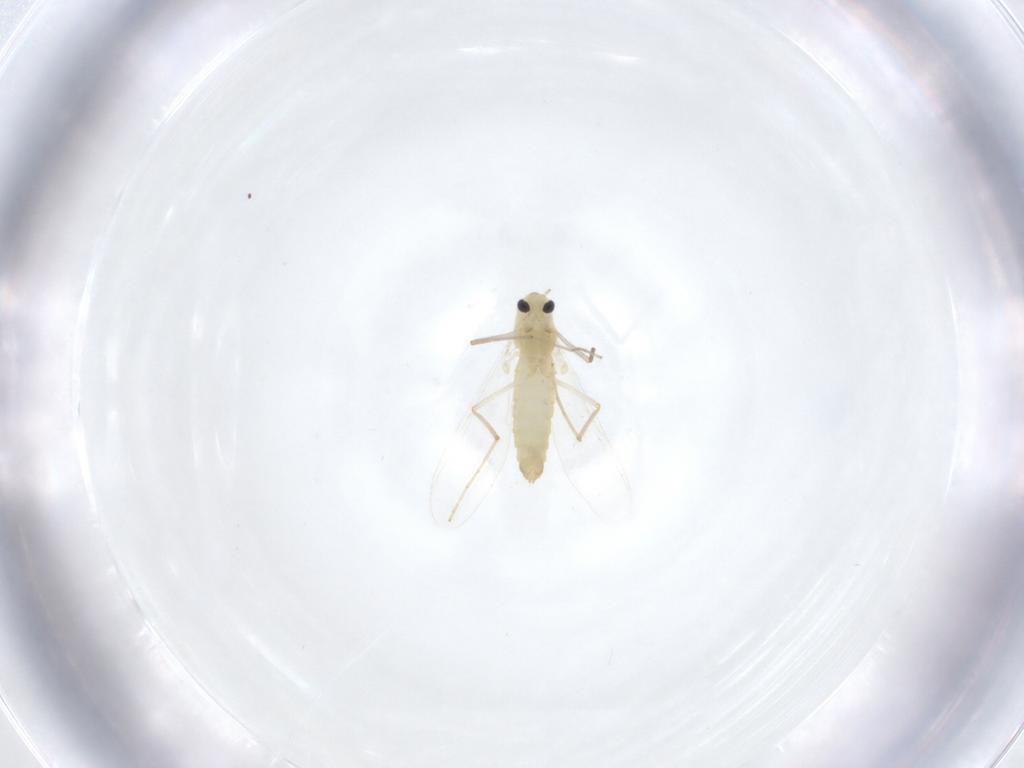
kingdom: Animalia
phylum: Arthropoda
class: Insecta
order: Diptera
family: Chironomidae
